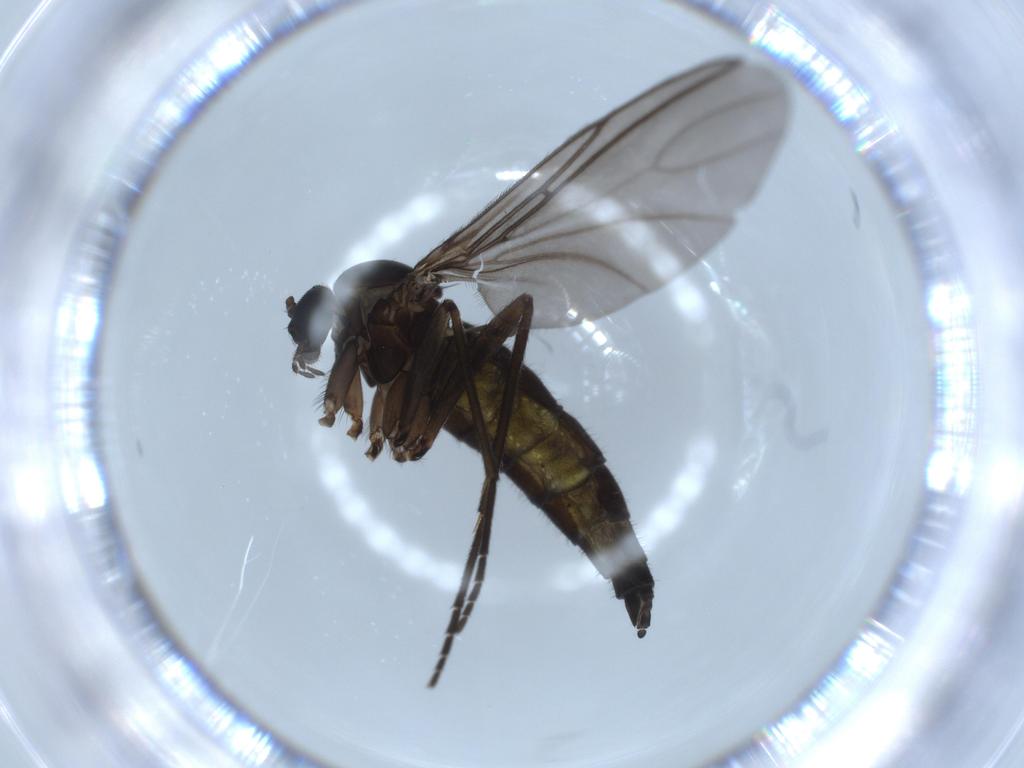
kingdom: Animalia
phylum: Arthropoda
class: Insecta
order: Diptera
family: Sciaridae
